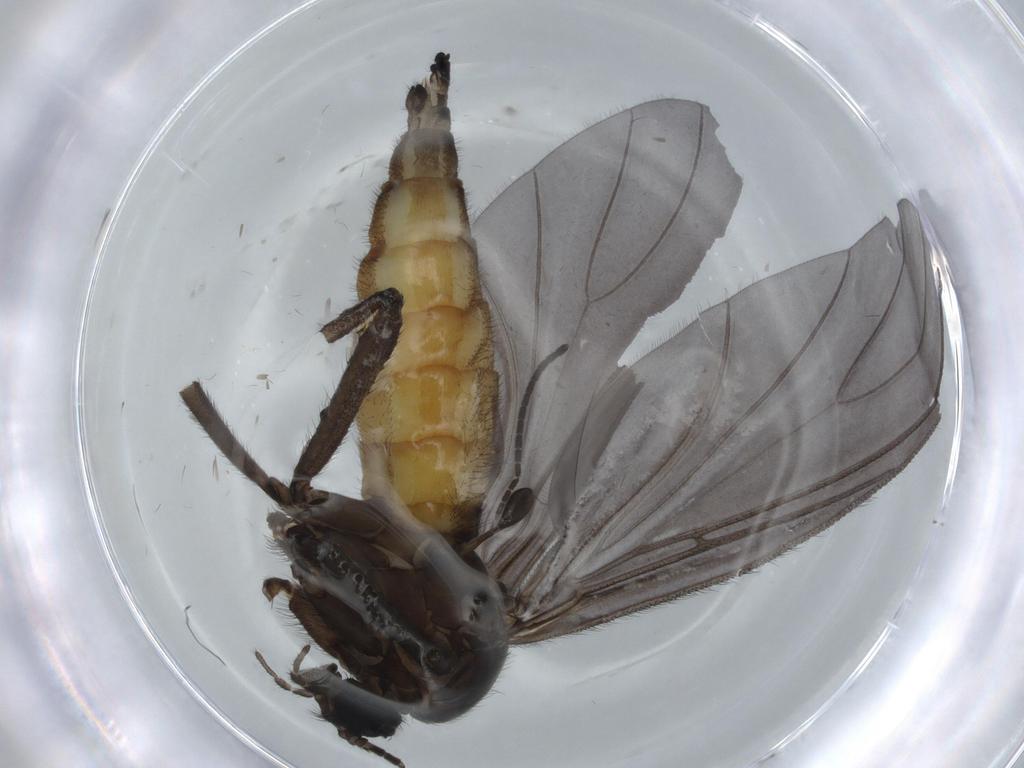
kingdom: Animalia
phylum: Arthropoda
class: Insecta
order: Diptera
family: Sciaridae
